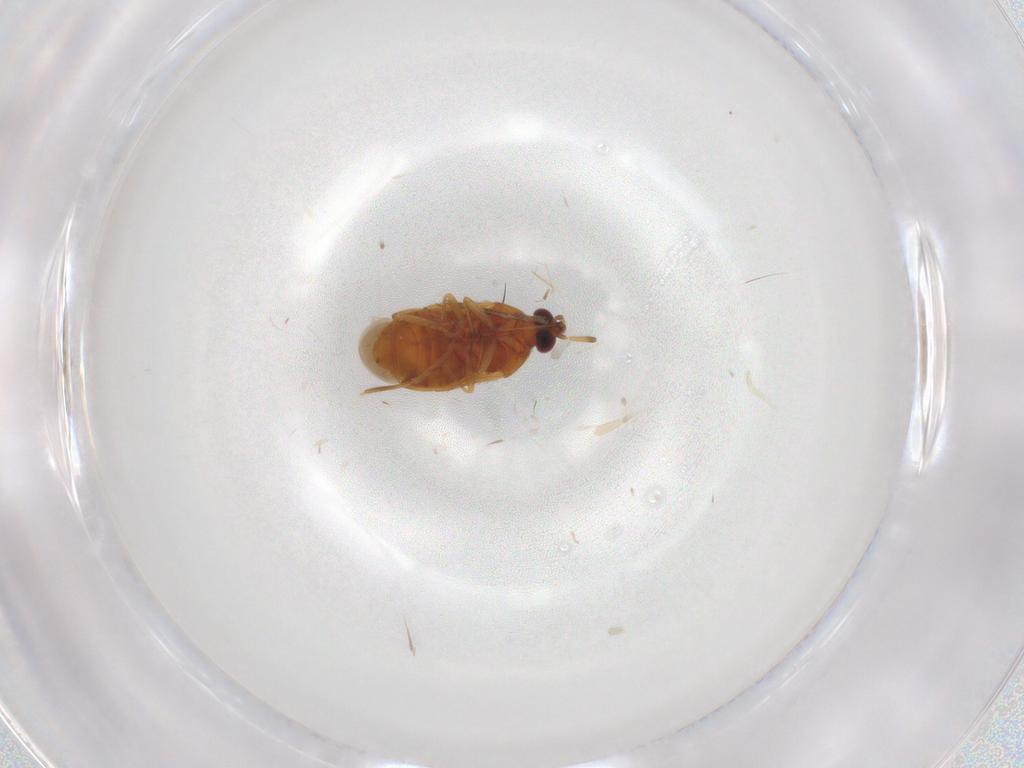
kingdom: Animalia
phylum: Arthropoda
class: Insecta
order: Hemiptera
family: Anthocoridae
